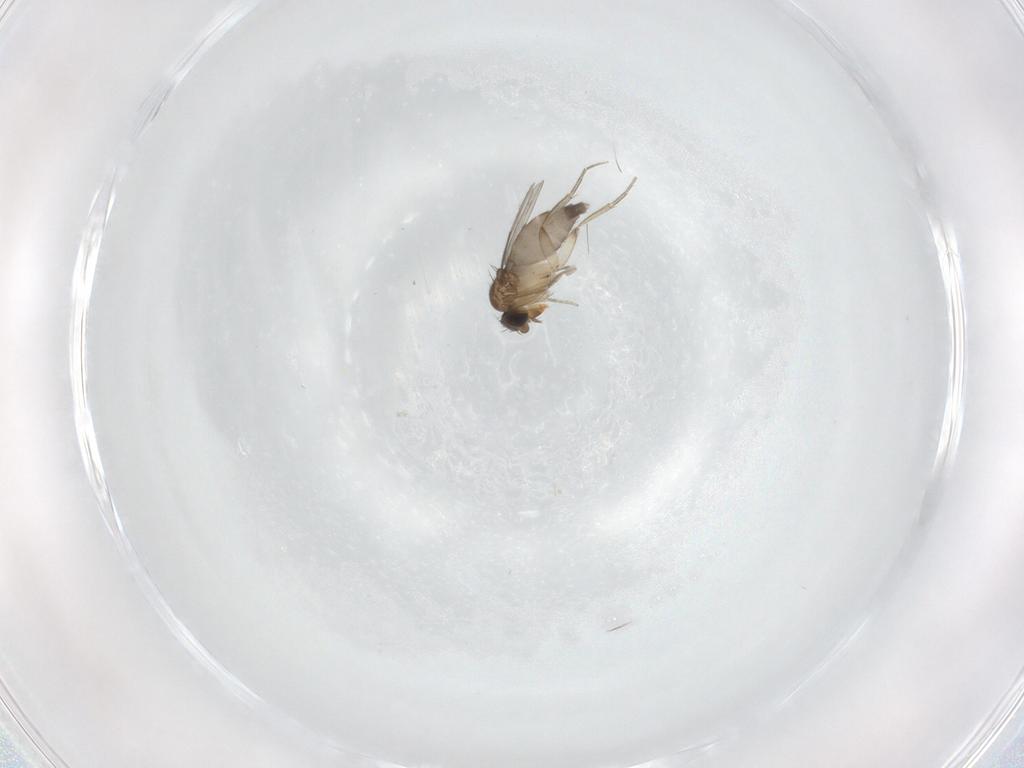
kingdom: Animalia
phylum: Arthropoda
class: Insecta
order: Diptera
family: Phoridae
